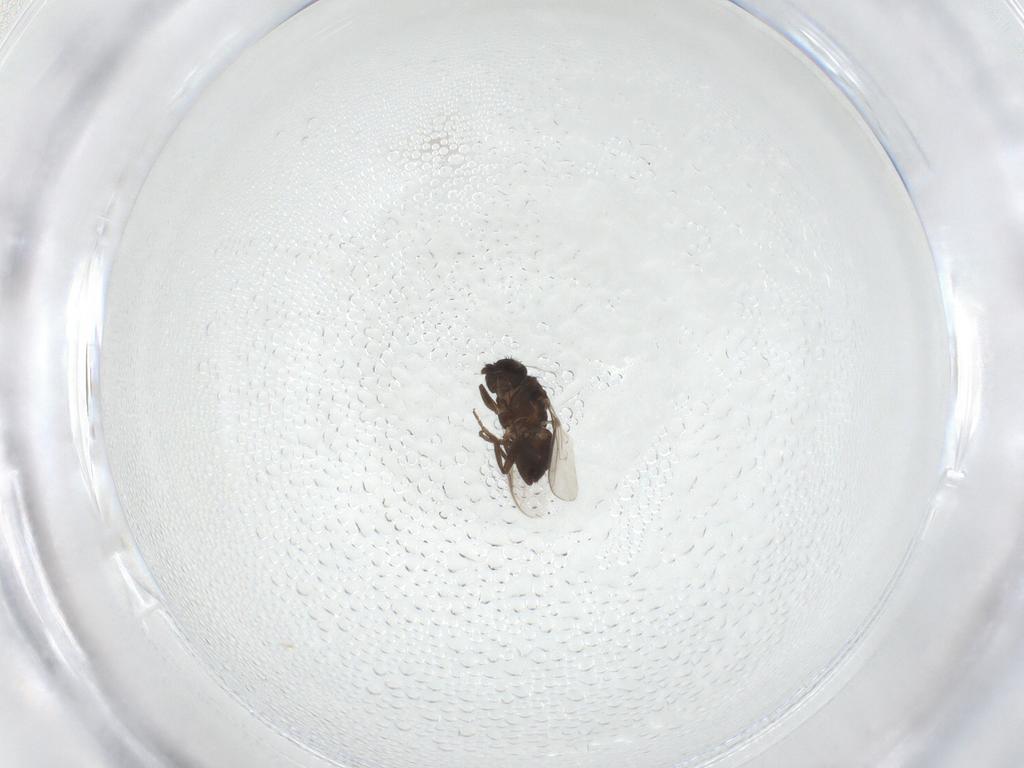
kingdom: Animalia
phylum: Arthropoda
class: Insecta
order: Diptera
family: Sphaeroceridae
